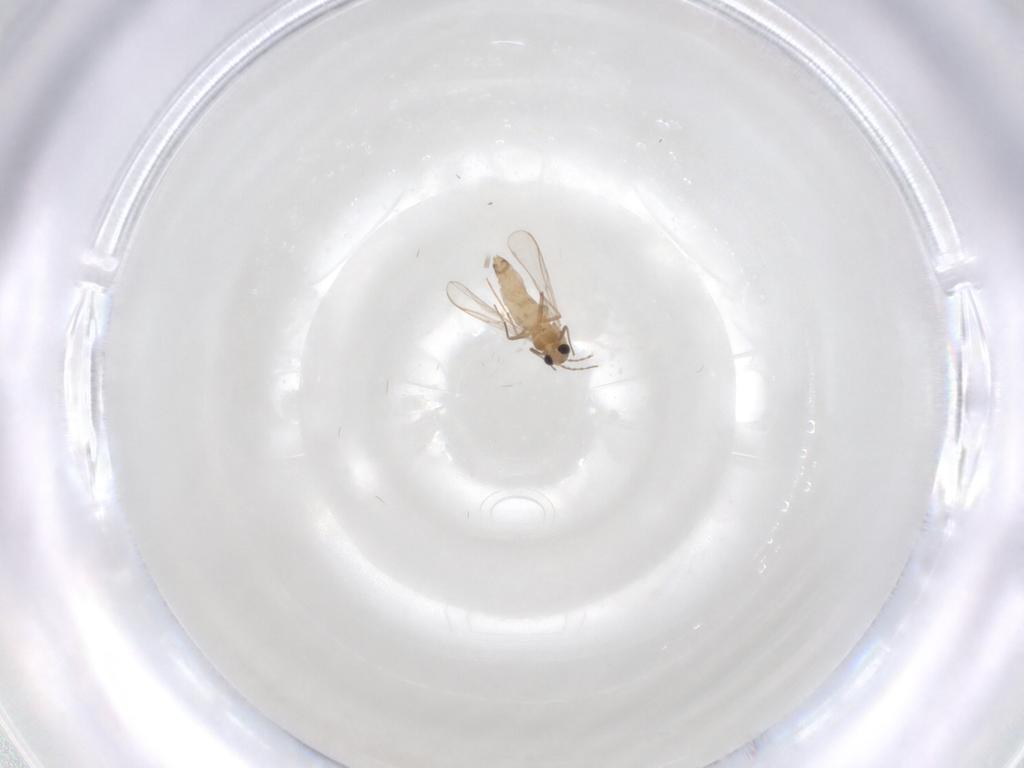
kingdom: Animalia
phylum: Arthropoda
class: Insecta
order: Diptera
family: Chironomidae
